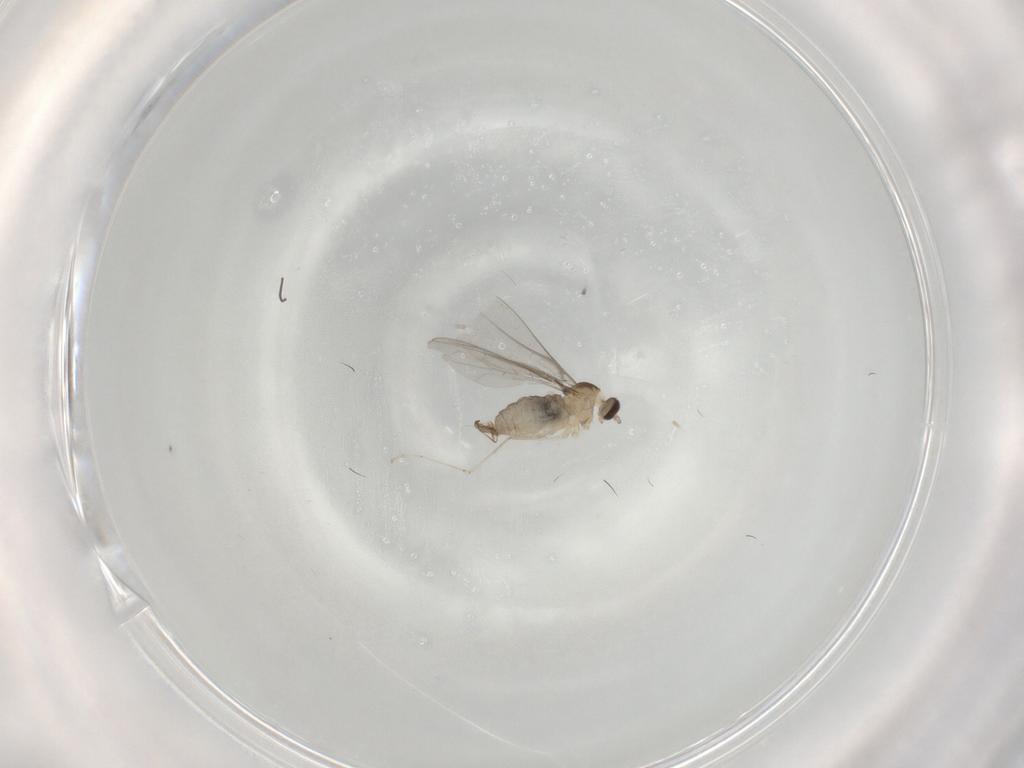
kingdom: Animalia
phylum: Arthropoda
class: Insecta
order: Diptera
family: Cecidomyiidae
